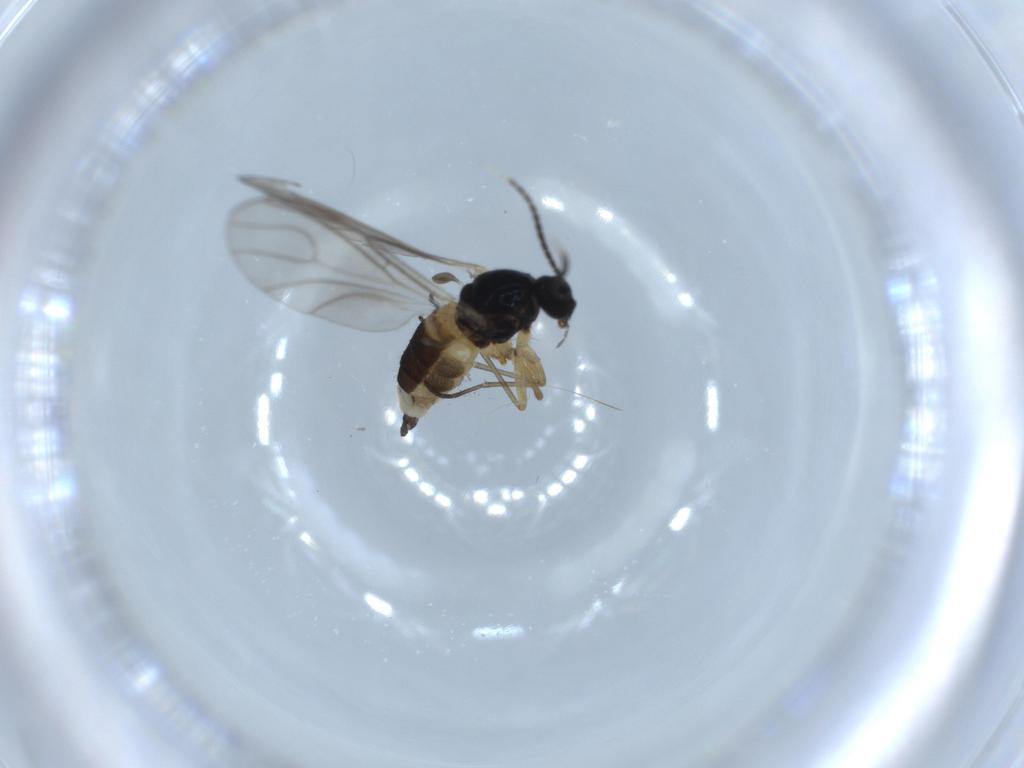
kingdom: Animalia
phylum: Arthropoda
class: Insecta
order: Diptera
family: Sciaridae
